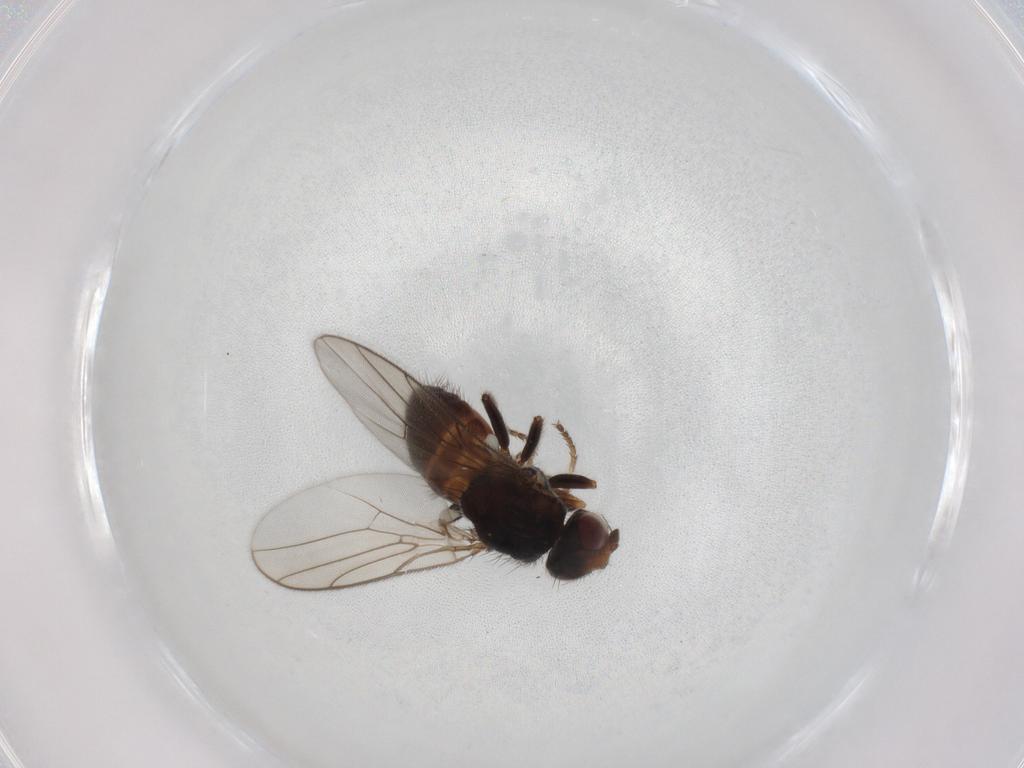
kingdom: Animalia
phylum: Arthropoda
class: Insecta
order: Diptera
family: Chloropidae
